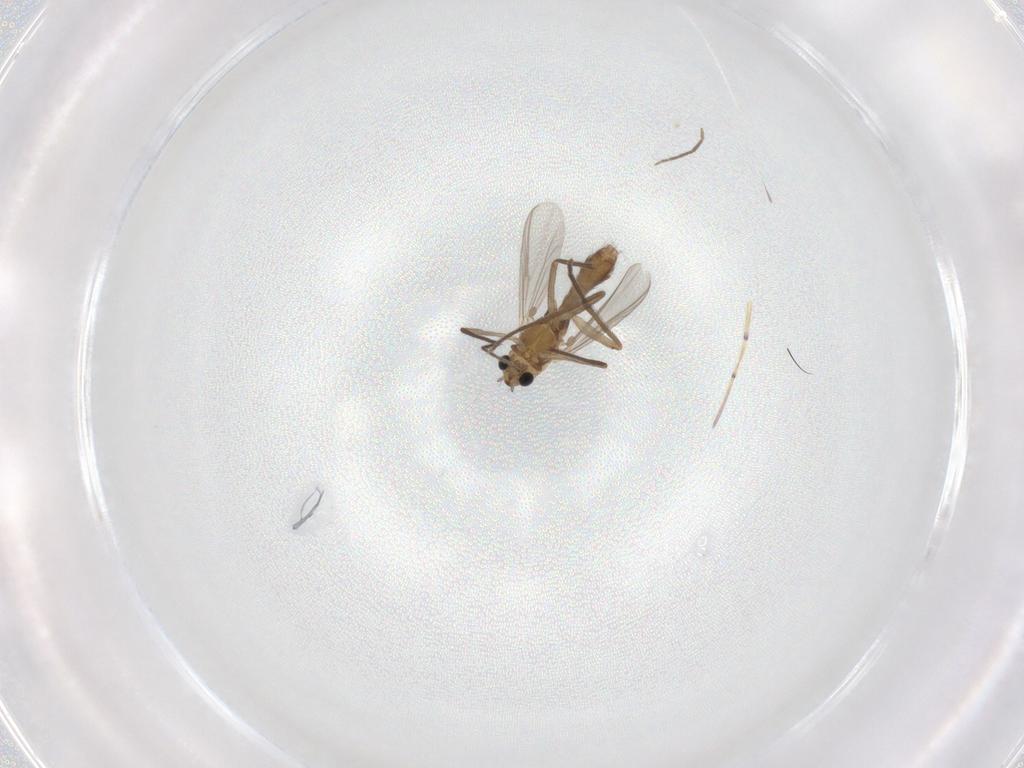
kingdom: Animalia
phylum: Arthropoda
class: Insecta
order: Diptera
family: Chironomidae
